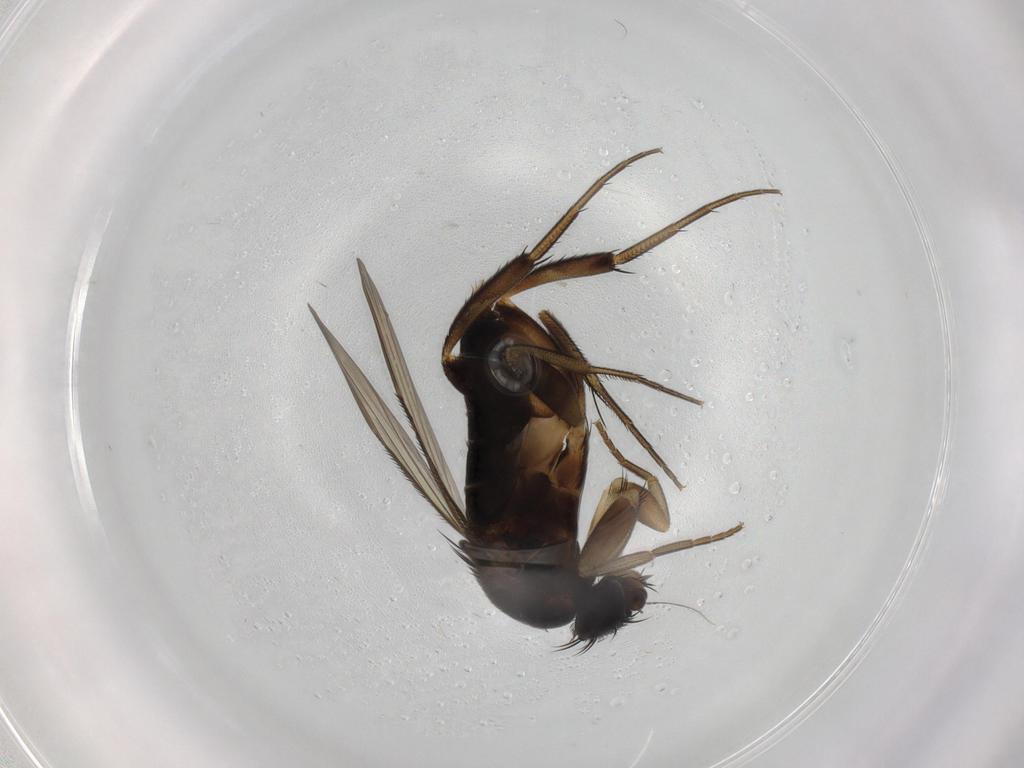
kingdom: Animalia
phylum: Arthropoda
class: Insecta
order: Diptera
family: Phoridae
